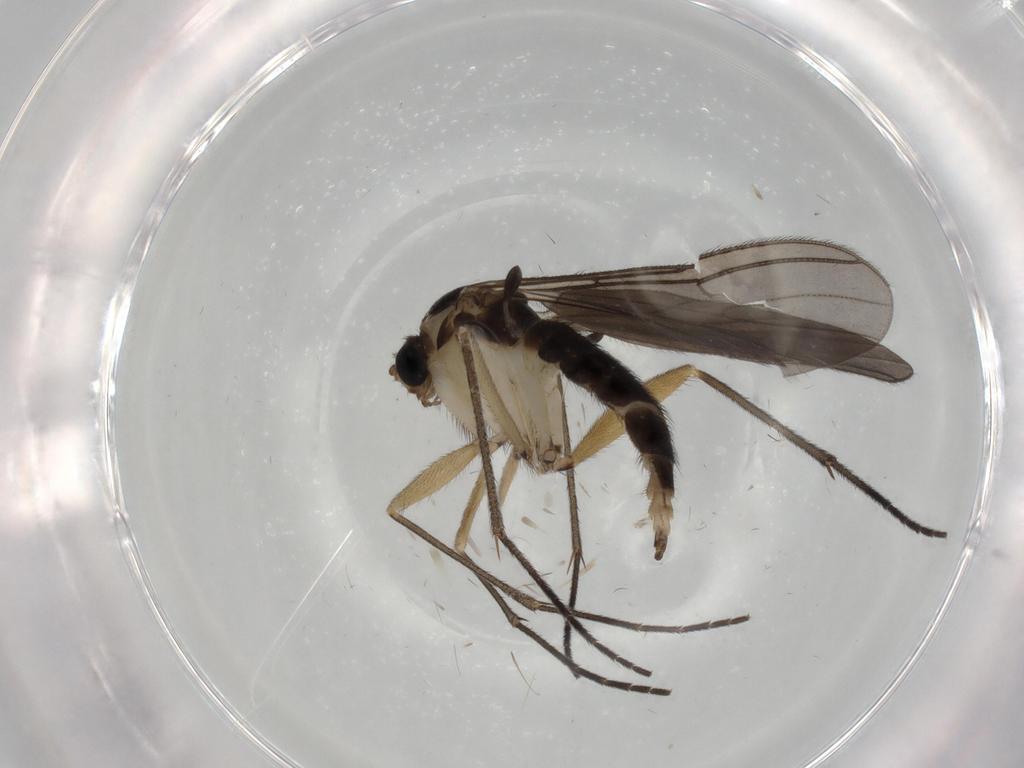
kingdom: Animalia
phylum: Arthropoda
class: Insecta
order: Diptera
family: Sciaridae
